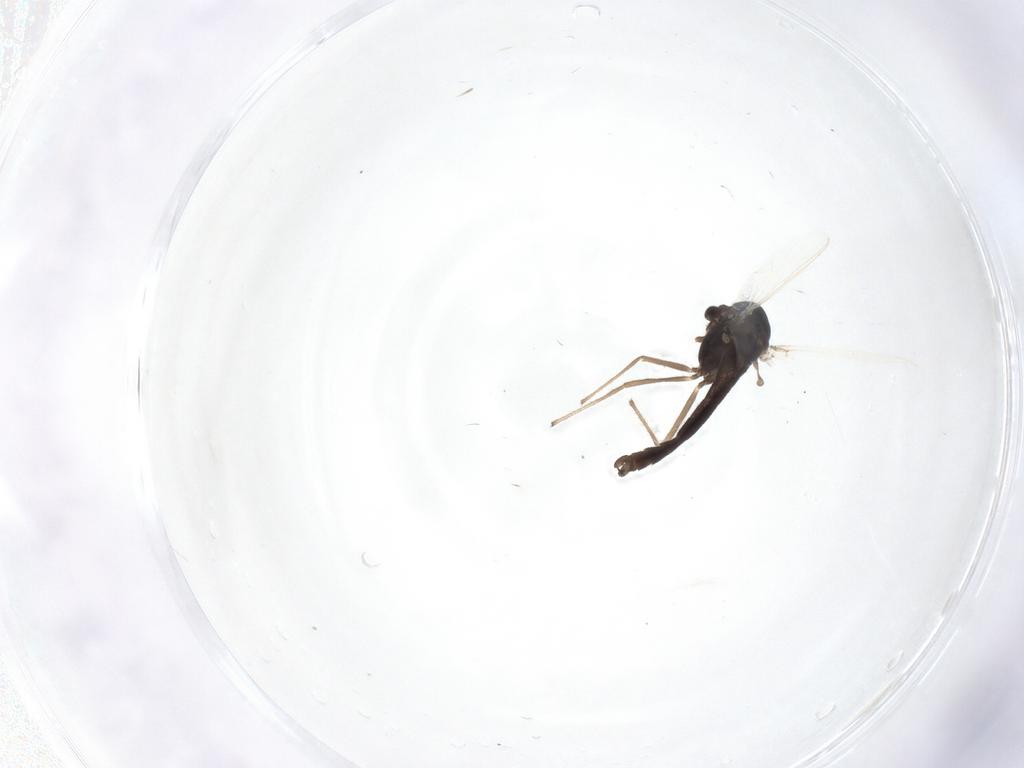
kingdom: Animalia
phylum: Arthropoda
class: Insecta
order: Diptera
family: Chironomidae
